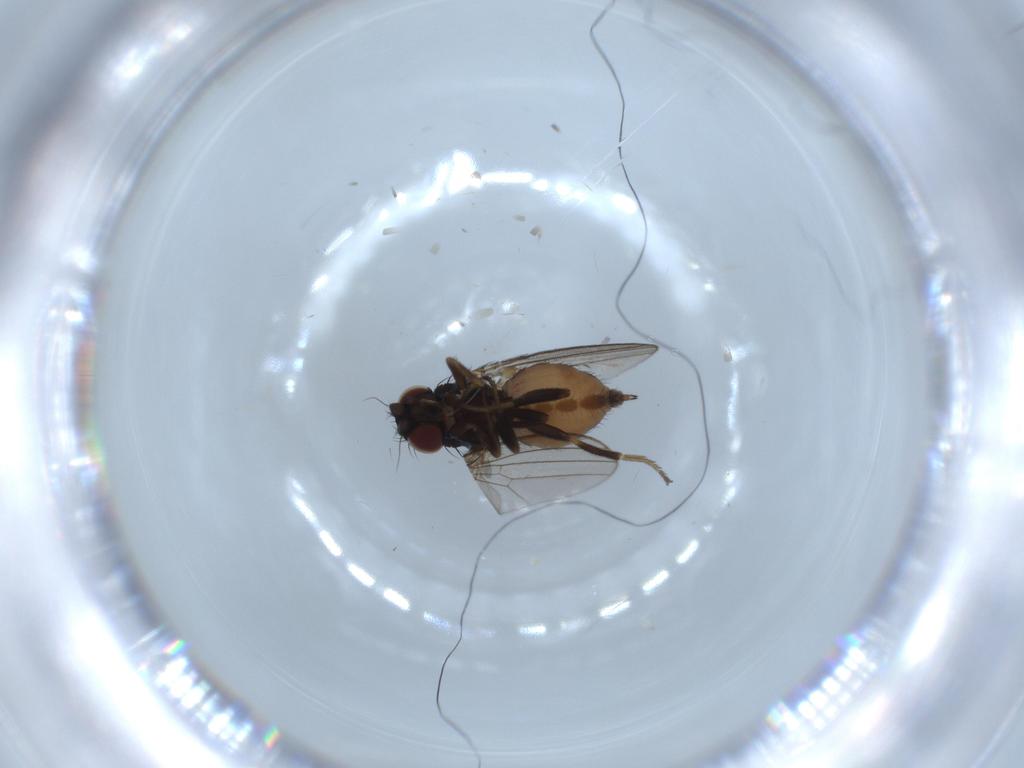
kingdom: Animalia
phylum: Arthropoda
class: Insecta
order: Diptera
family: Milichiidae
